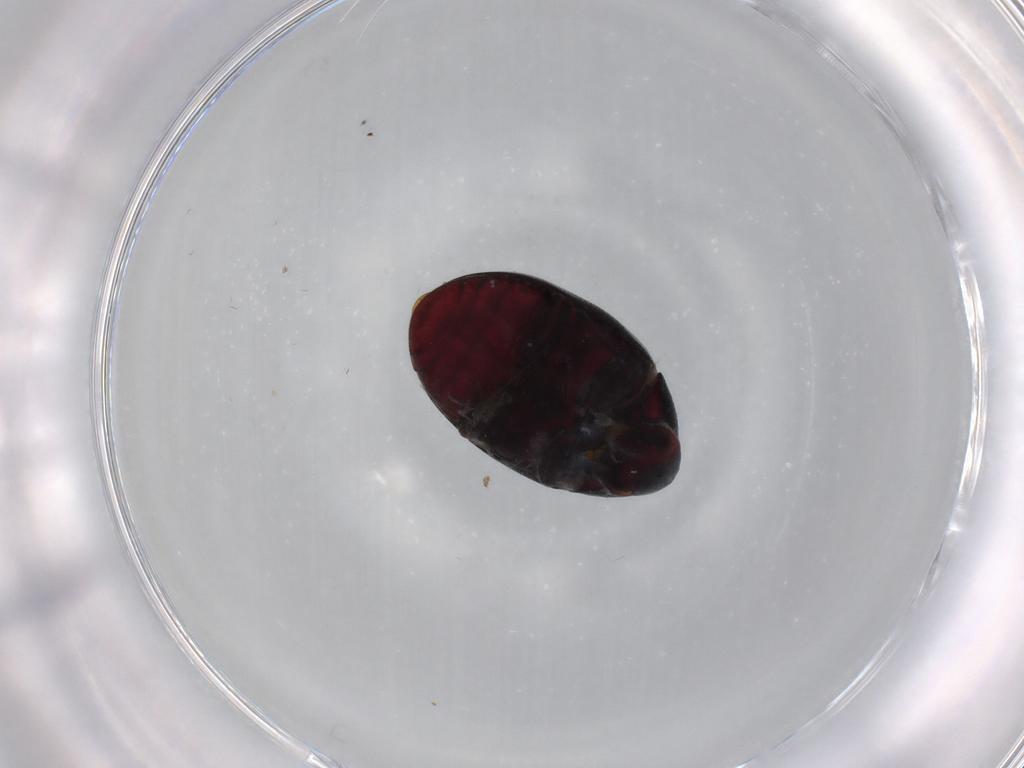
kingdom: Animalia
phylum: Arthropoda
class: Insecta
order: Coleoptera
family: Ptinidae
